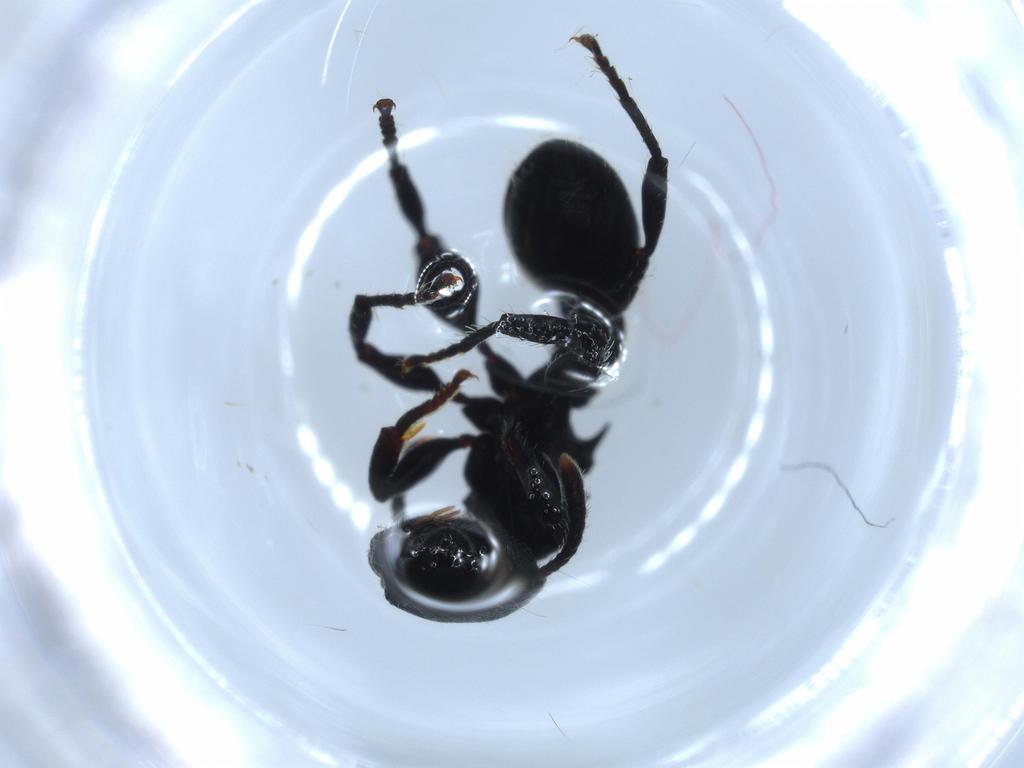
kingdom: Animalia
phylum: Arthropoda
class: Insecta
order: Hymenoptera
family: Formicidae
